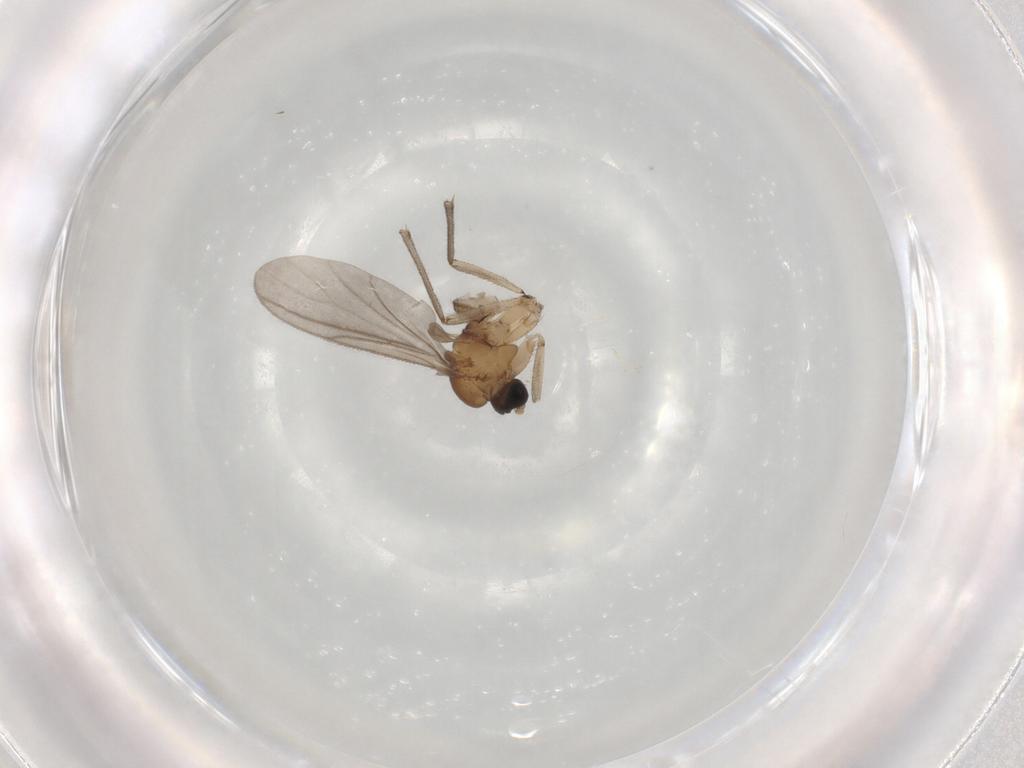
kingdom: Animalia
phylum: Arthropoda
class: Insecta
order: Diptera
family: Sciaridae
